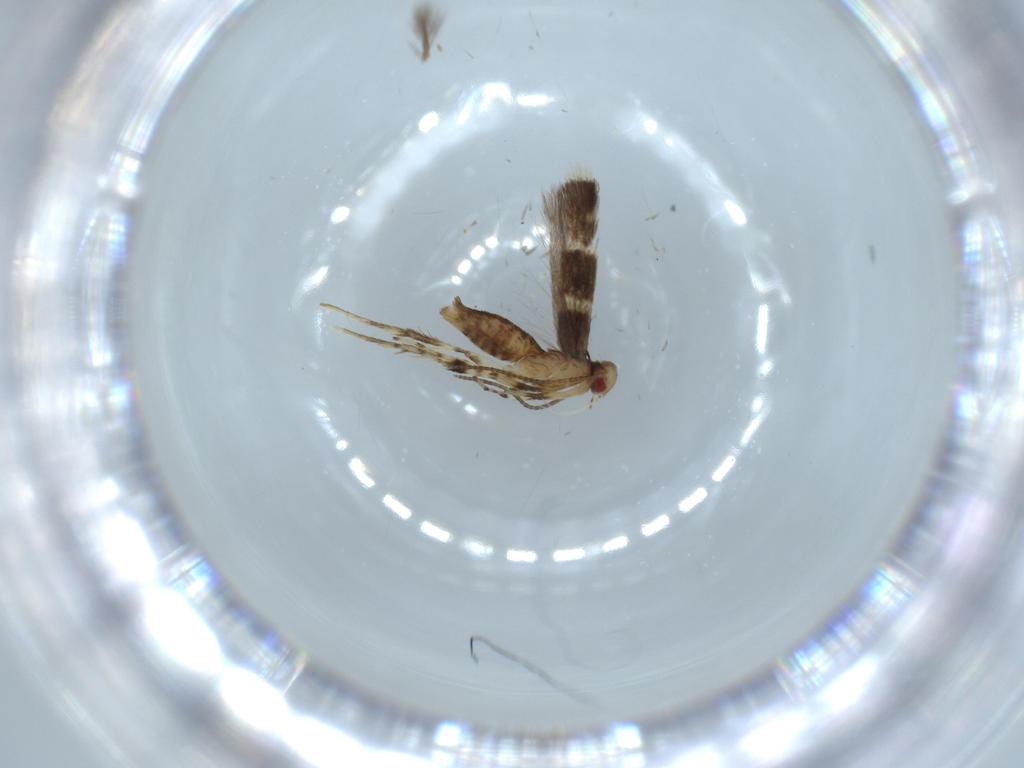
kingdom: Animalia
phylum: Arthropoda
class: Insecta
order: Lepidoptera
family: Gracillariidae
